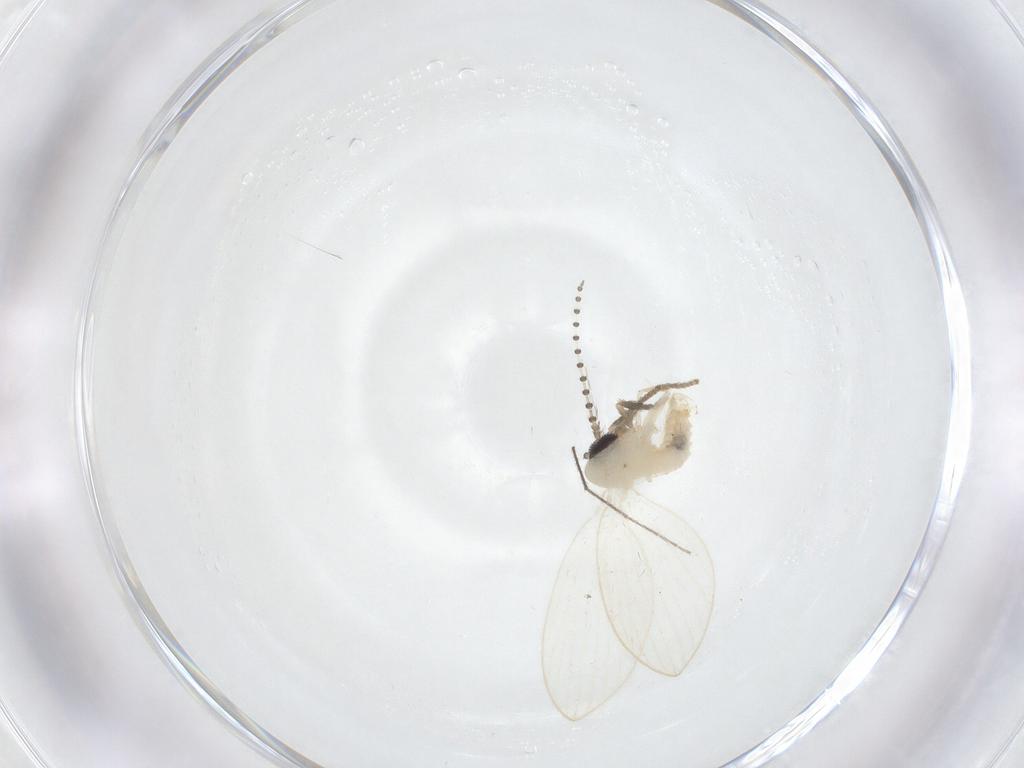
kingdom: Animalia
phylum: Arthropoda
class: Insecta
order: Diptera
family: Psychodidae
